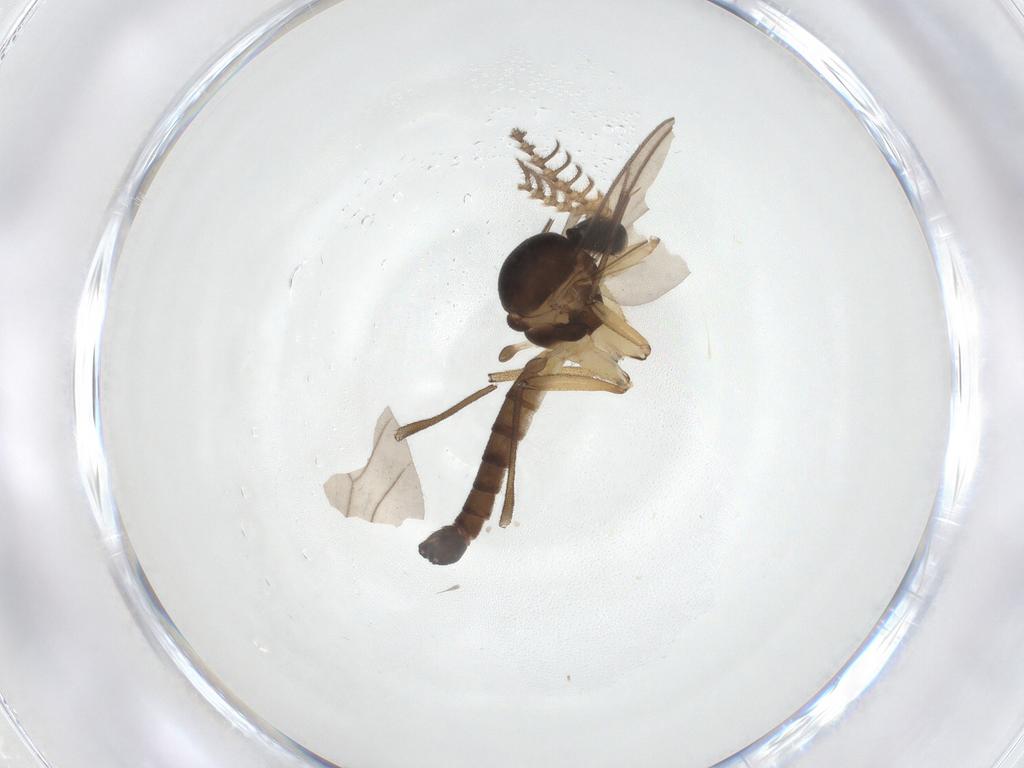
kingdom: Animalia
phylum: Arthropoda
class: Insecta
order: Diptera
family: Mycetophilidae
